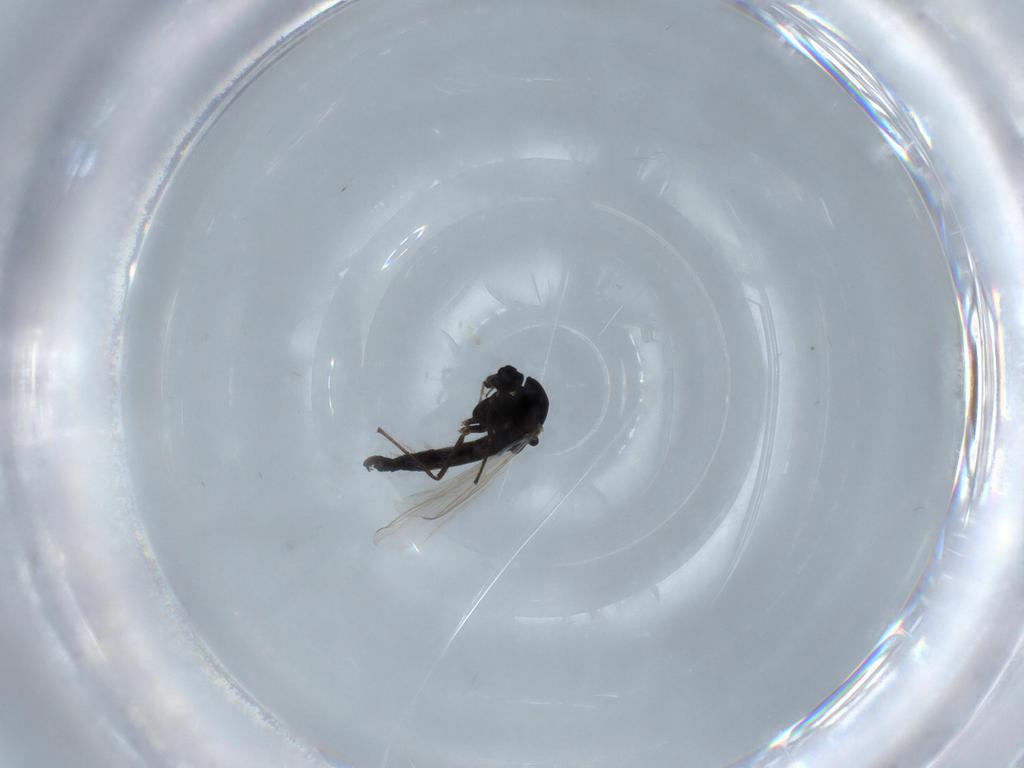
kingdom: Animalia
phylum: Arthropoda
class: Insecta
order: Diptera
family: Chironomidae
